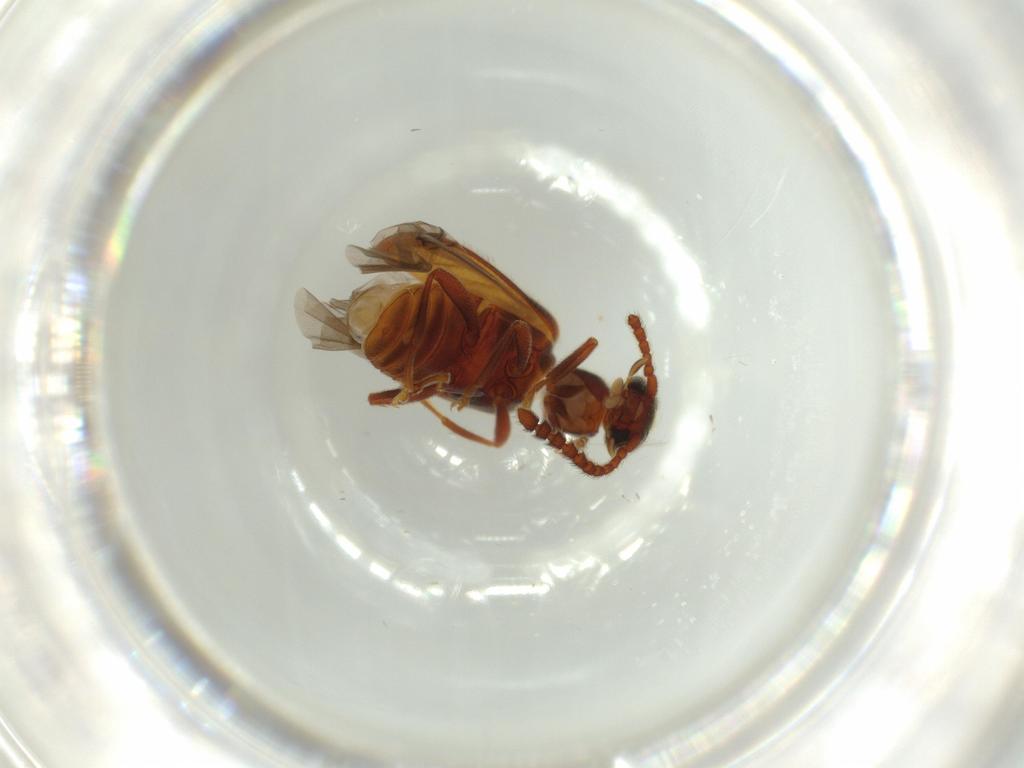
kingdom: Animalia
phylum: Arthropoda
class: Insecta
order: Coleoptera
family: Aderidae
